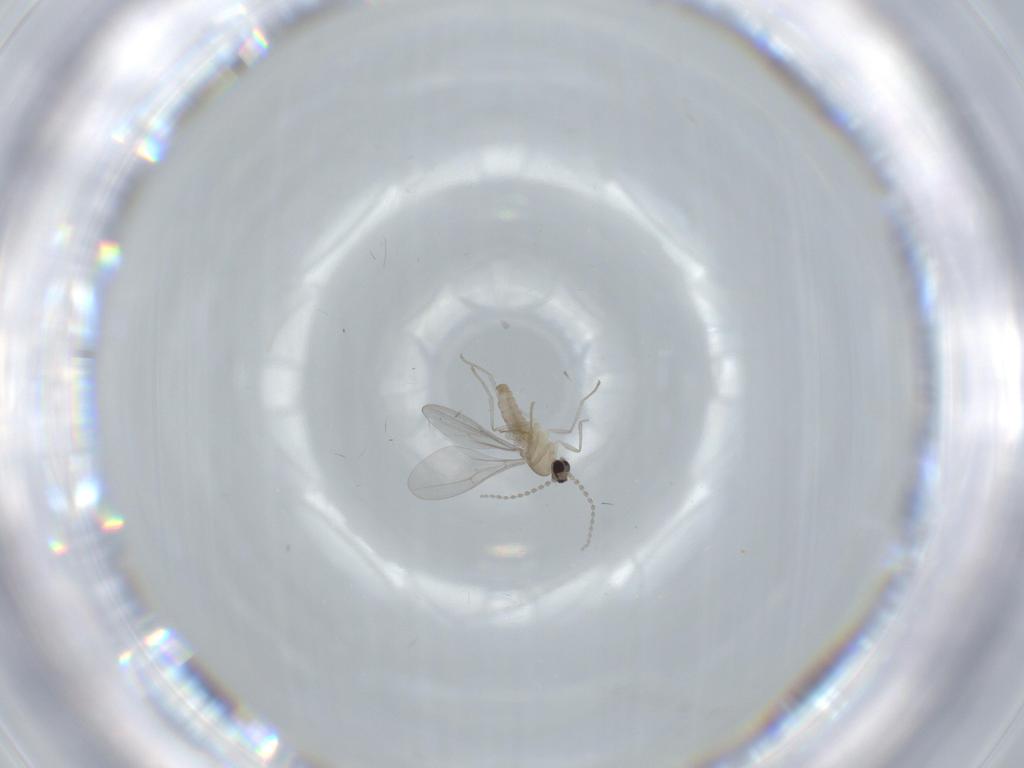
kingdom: Animalia
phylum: Arthropoda
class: Insecta
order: Diptera
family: Cecidomyiidae
